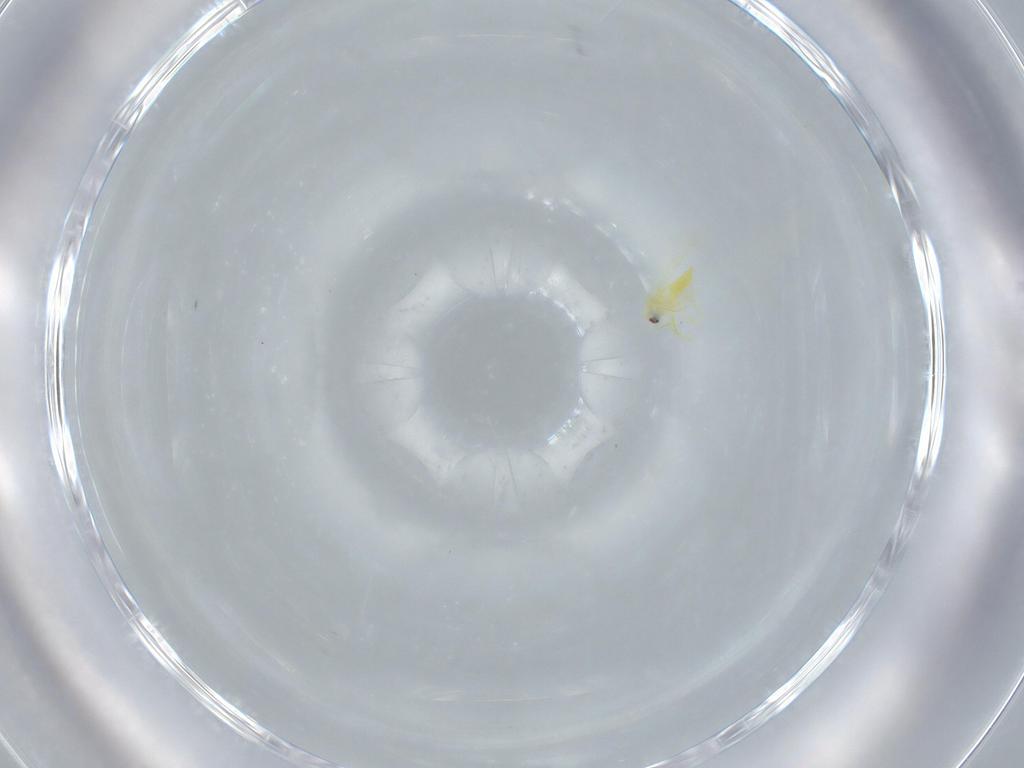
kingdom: Animalia
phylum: Arthropoda
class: Insecta
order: Hemiptera
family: Aleyrodidae
